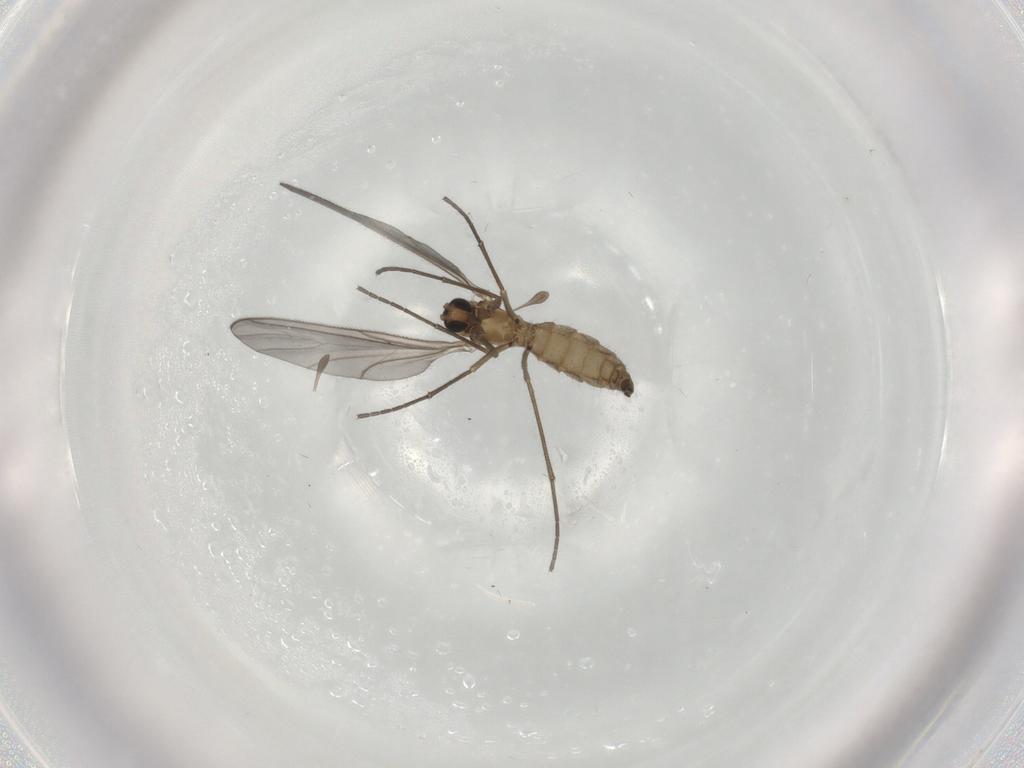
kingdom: Animalia
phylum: Arthropoda
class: Insecta
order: Diptera
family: Sciaridae
